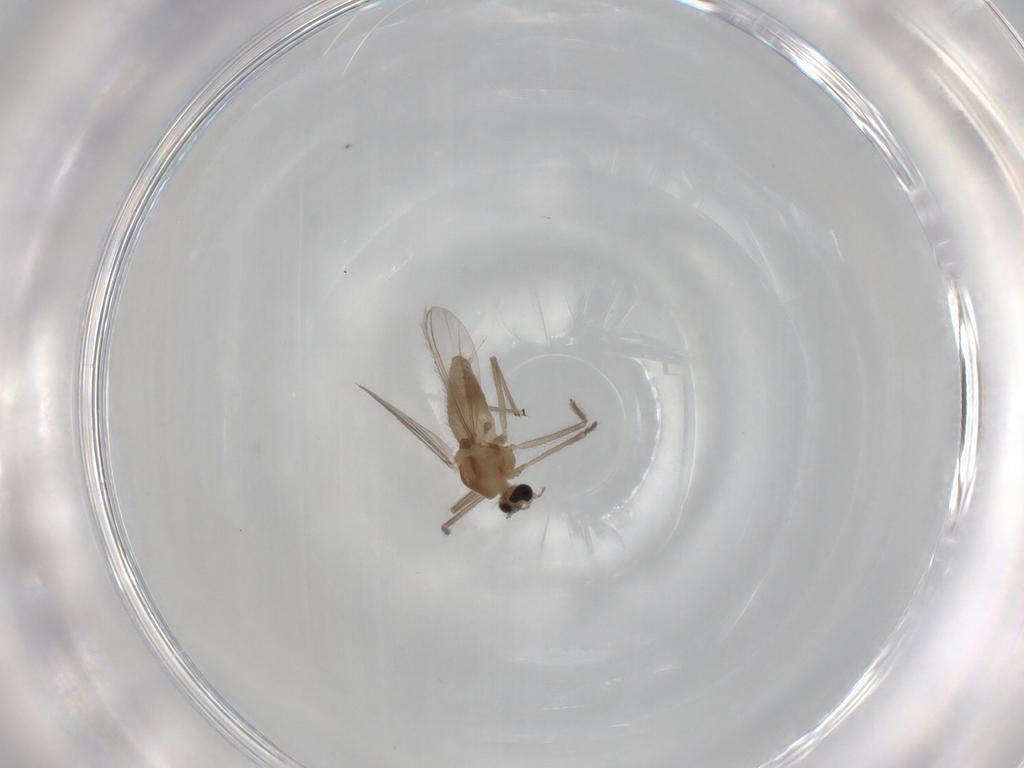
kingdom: Animalia
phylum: Arthropoda
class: Insecta
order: Diptera
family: Chironomidae
